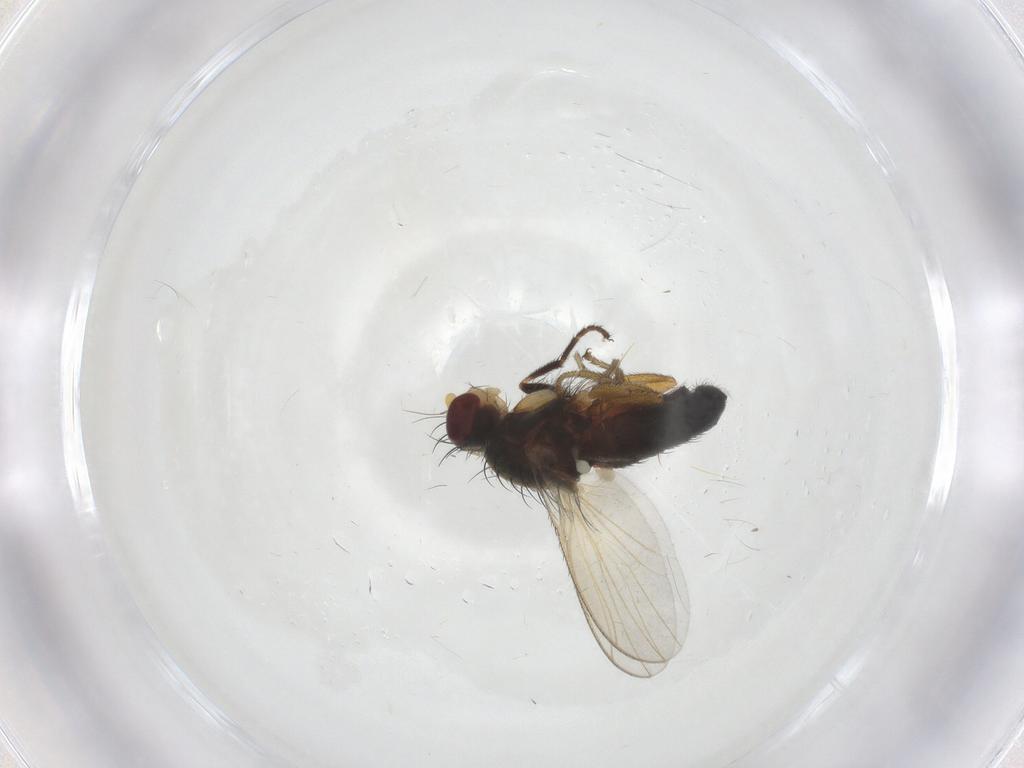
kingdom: Animalia
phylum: Arthropoda
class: Insecta
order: Diptera
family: Heleomyzidae
